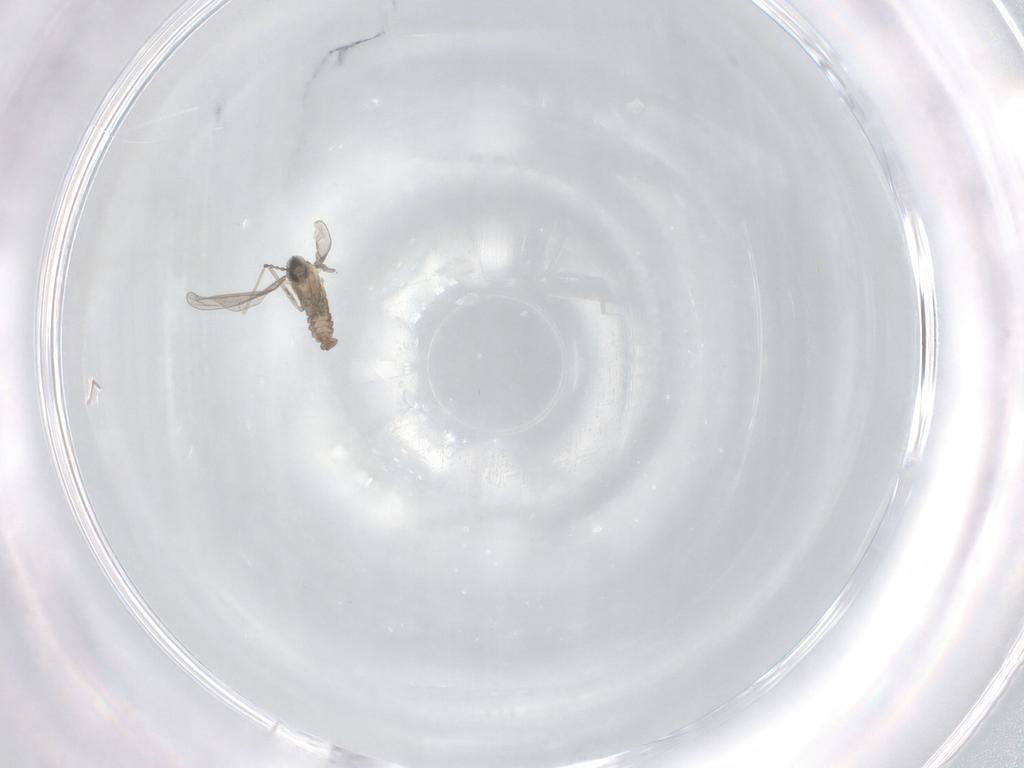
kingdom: Animalia
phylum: Arthropoda
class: Insecta
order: Diptera
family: Cecidomyiidae
